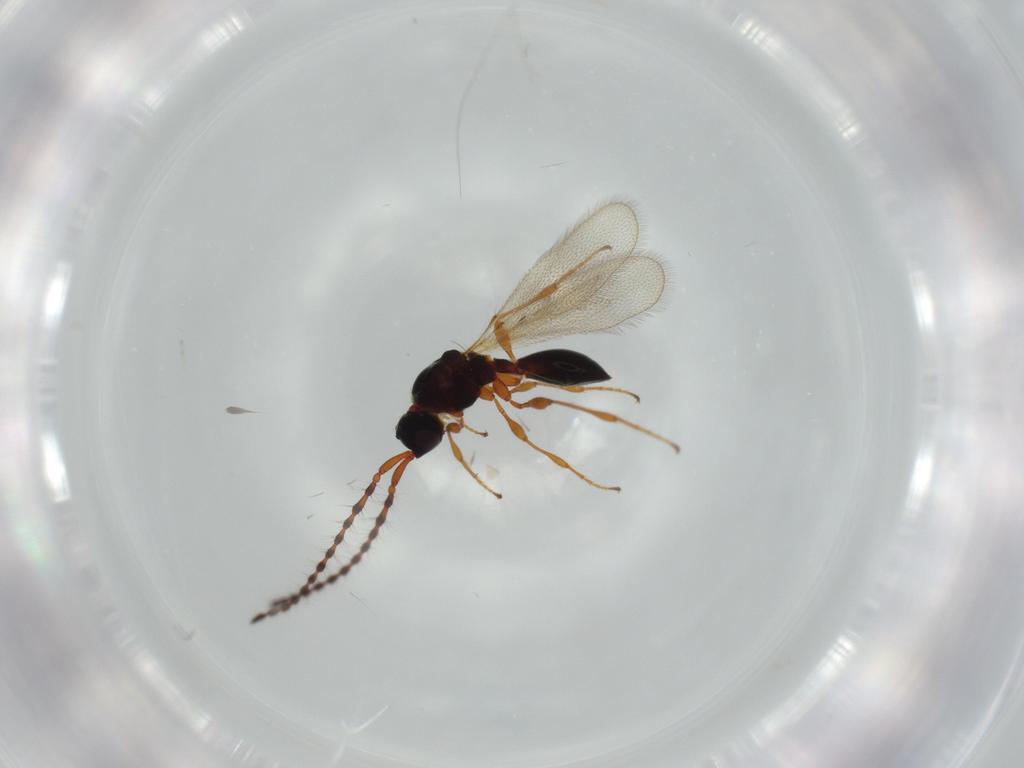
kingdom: Animalia
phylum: Arthropoda
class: Insecta
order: Hymenoptera
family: Diapriidae
